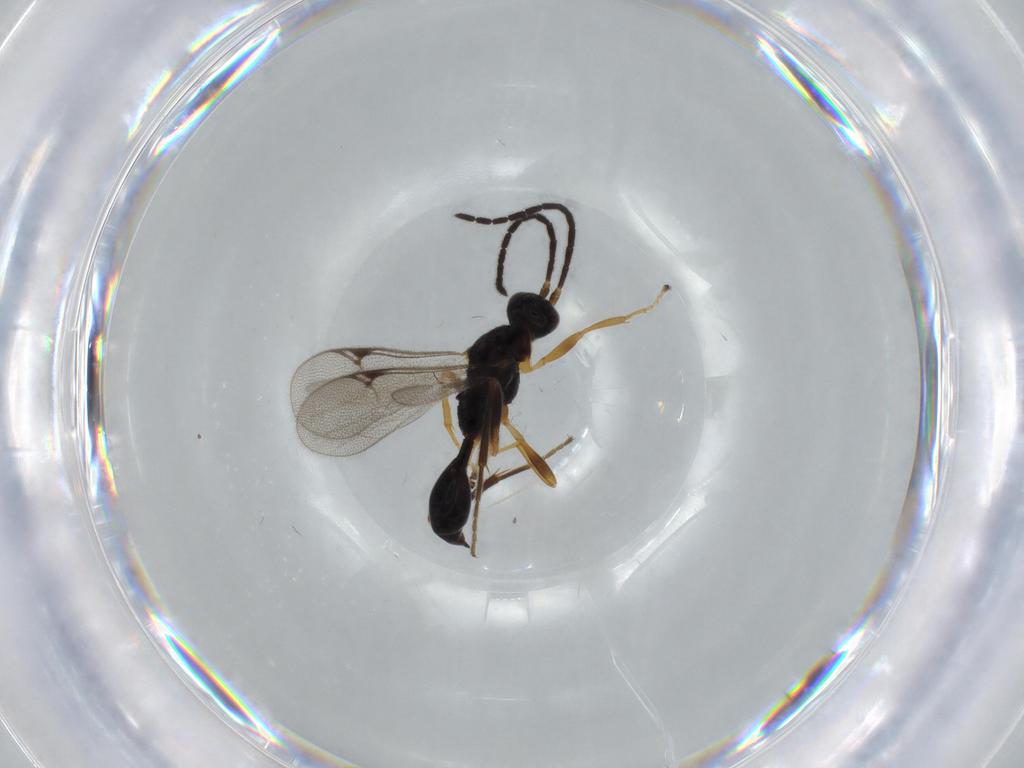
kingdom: Animalia
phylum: Arthropoda
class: Insecta
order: Hymenoptera
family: Proctotrupidae
